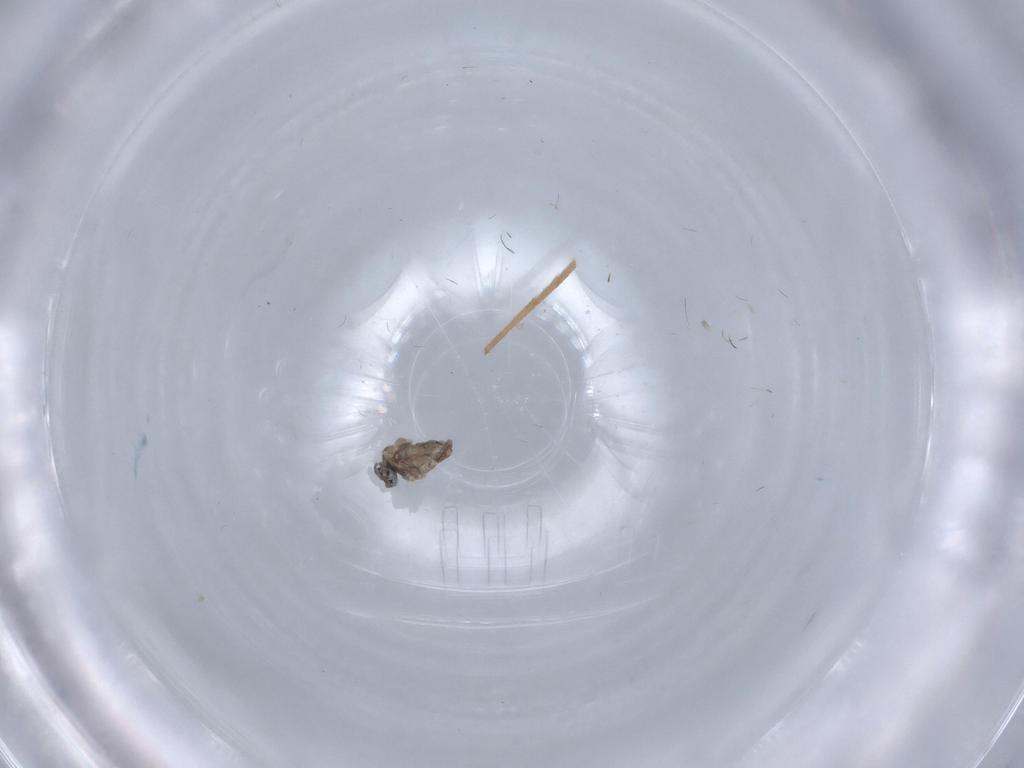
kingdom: Animalia
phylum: Arthropoda
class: Insecta
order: Diptera
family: Cecidomyiidae
